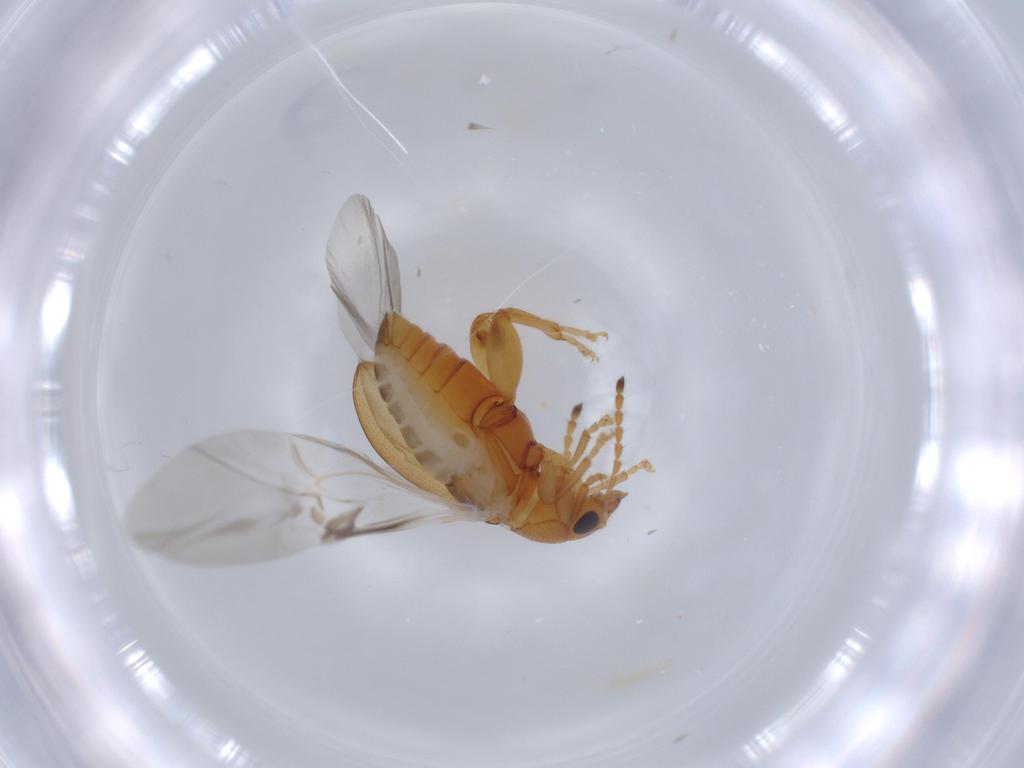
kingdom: Animalia
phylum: Arthropoda
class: Insecta
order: Coleoptera
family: Chrysomelidae
